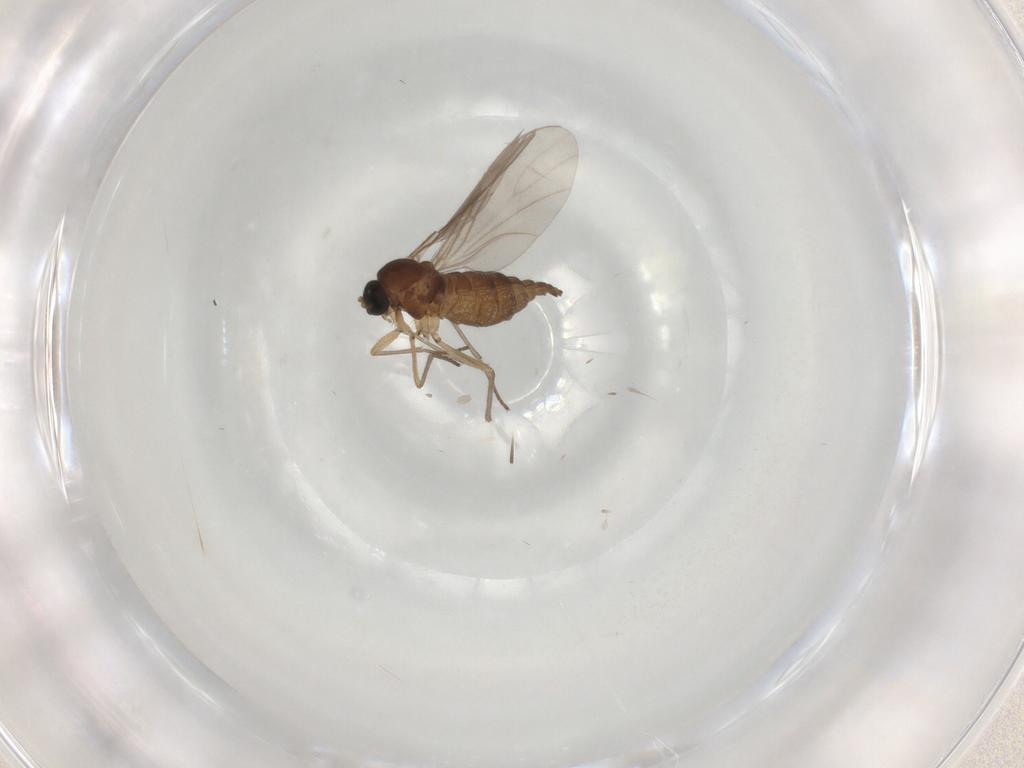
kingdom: Animalia
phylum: Arthropoda
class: Insecta
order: Diptera
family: Sciaridae
